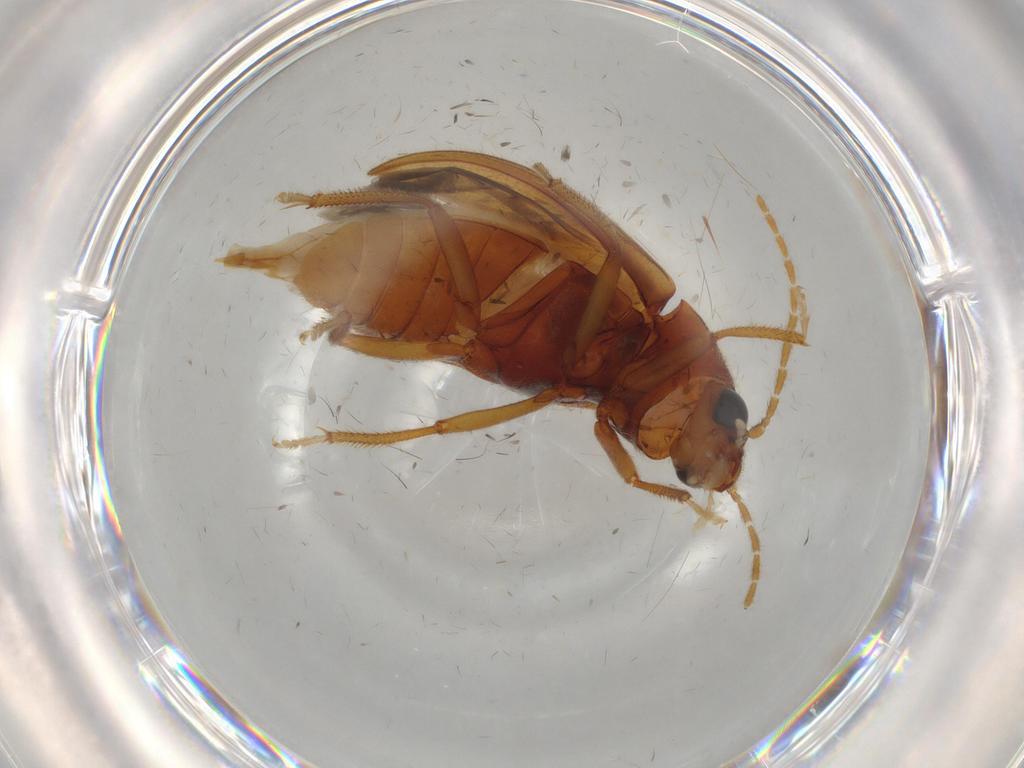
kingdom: Animalia
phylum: Arthropoda
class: Insecta
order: Coleoptera
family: Ptilodactylidae
